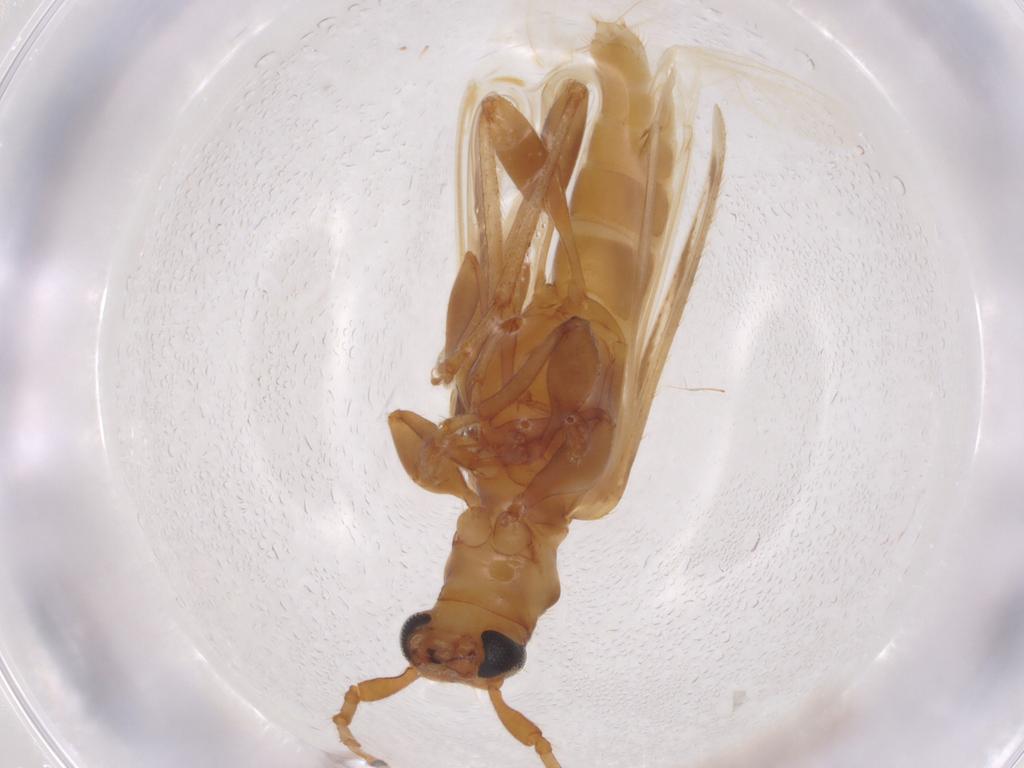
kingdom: Animalia
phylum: Arthropoda
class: Insecta
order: Coleoptera
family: Cerambycidae
